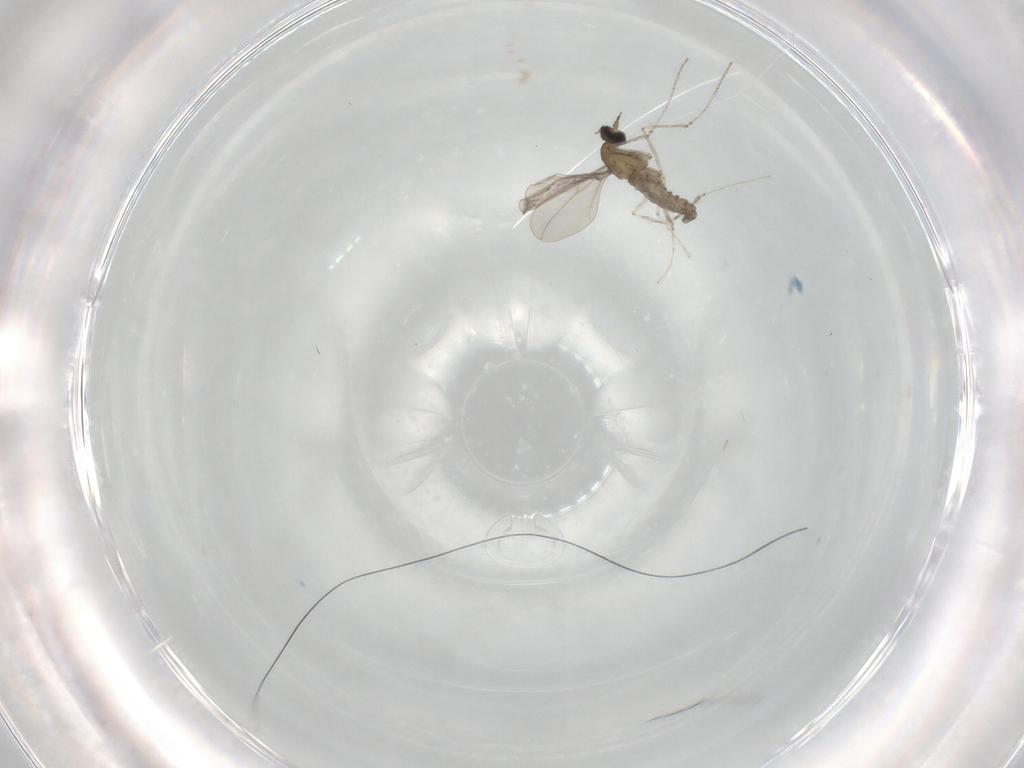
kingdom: Animalia
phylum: Arthropoda
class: Insecta
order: Diptera
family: Cecidomyiidae
